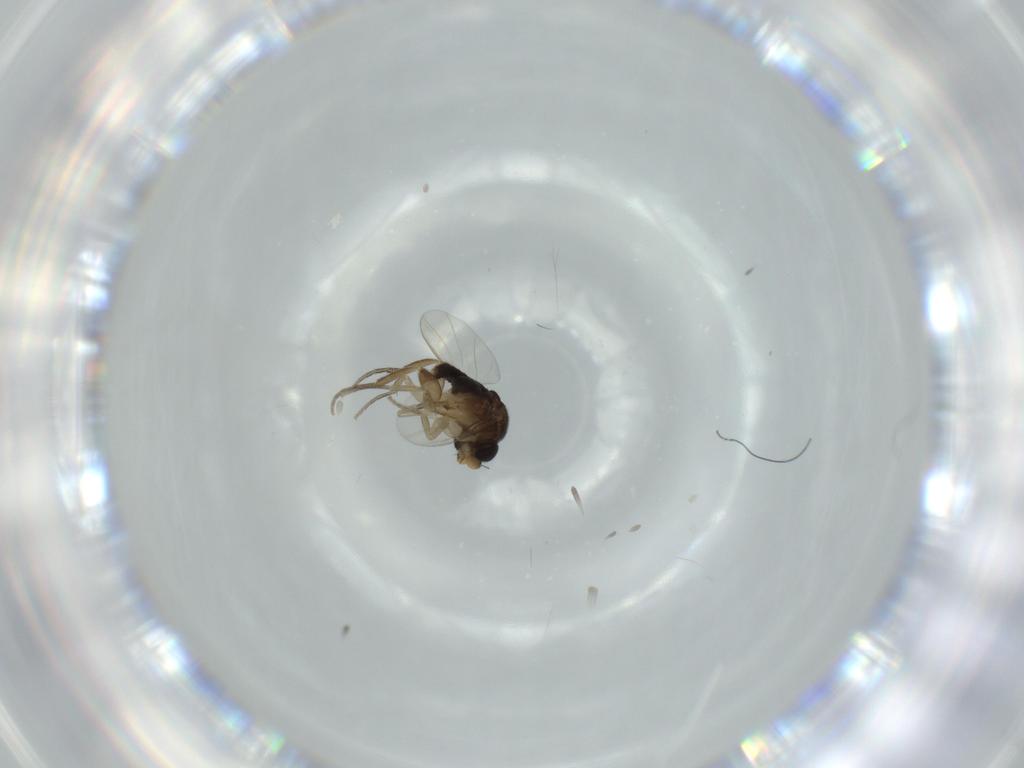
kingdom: Animalia
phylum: Arthropoda
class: Insecta
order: Diptera
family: Phoridae
